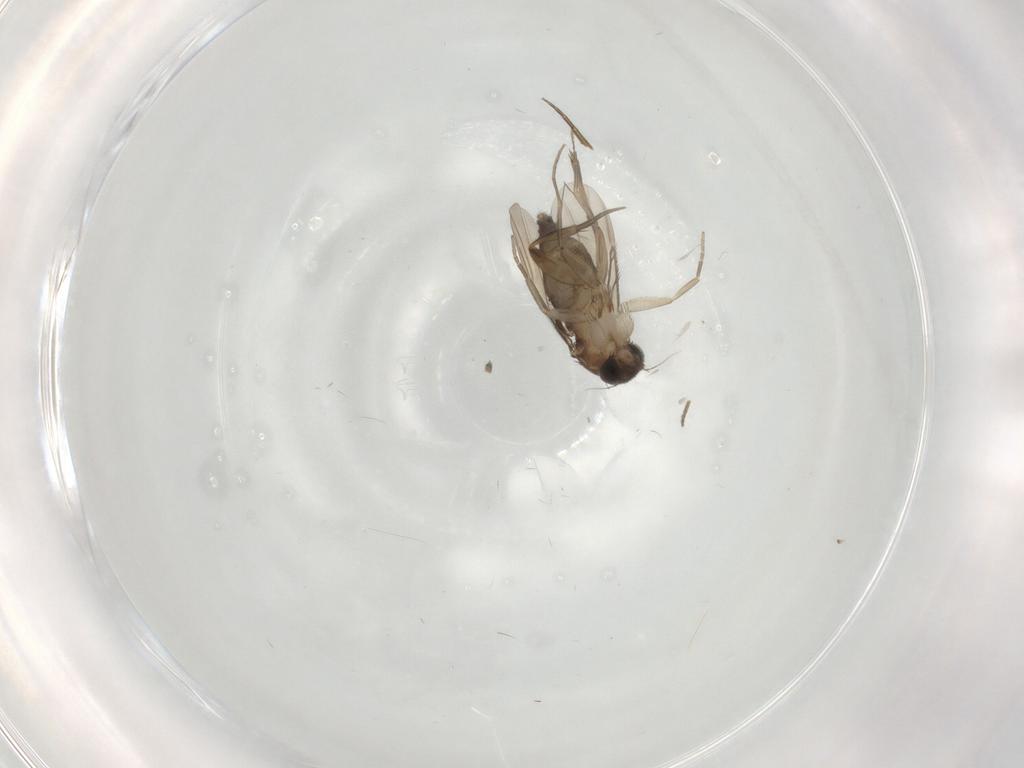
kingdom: Animalia
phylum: Arthropoda
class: Insecta
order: Diptera
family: Phoridae
